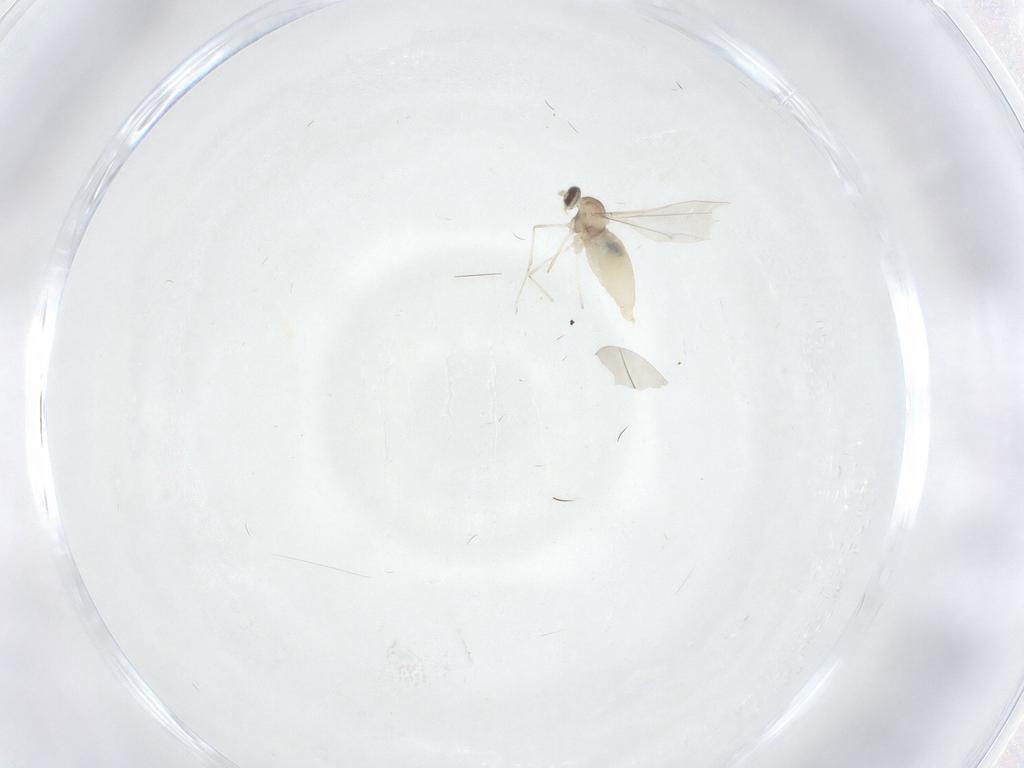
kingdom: Animalia
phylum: Arthropoda
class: Insecta
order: Diptera
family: Cecidomyiidae
